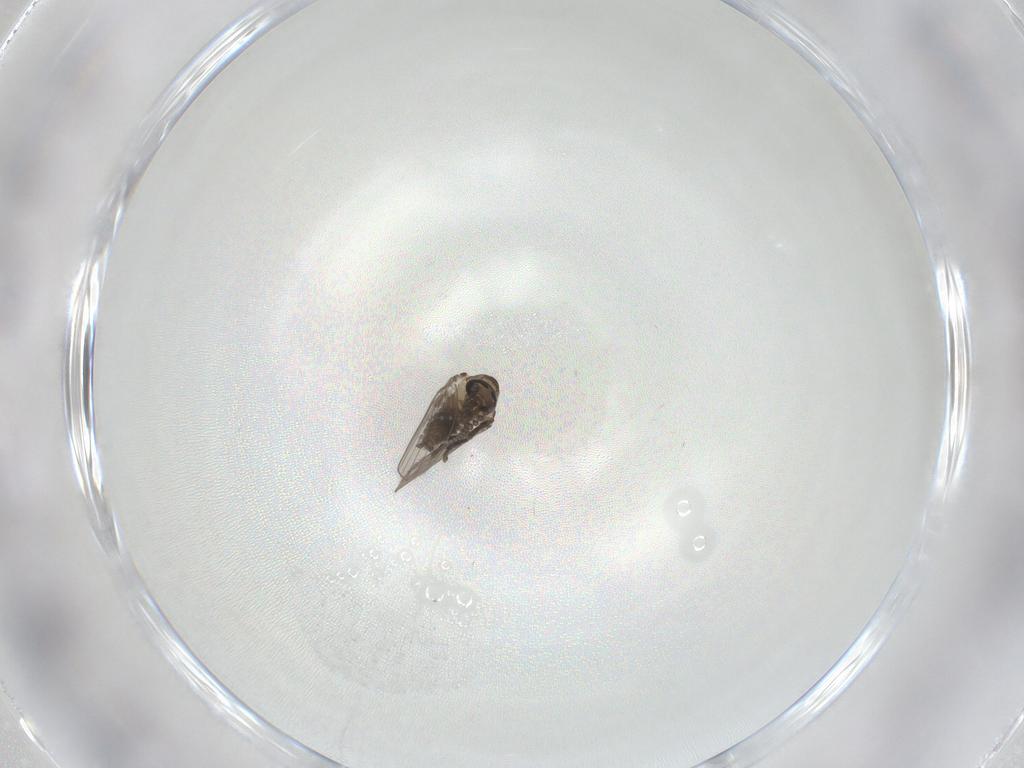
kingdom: Animalia
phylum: Arthropoda
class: Insecta
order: Diptera
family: Psychodidae
